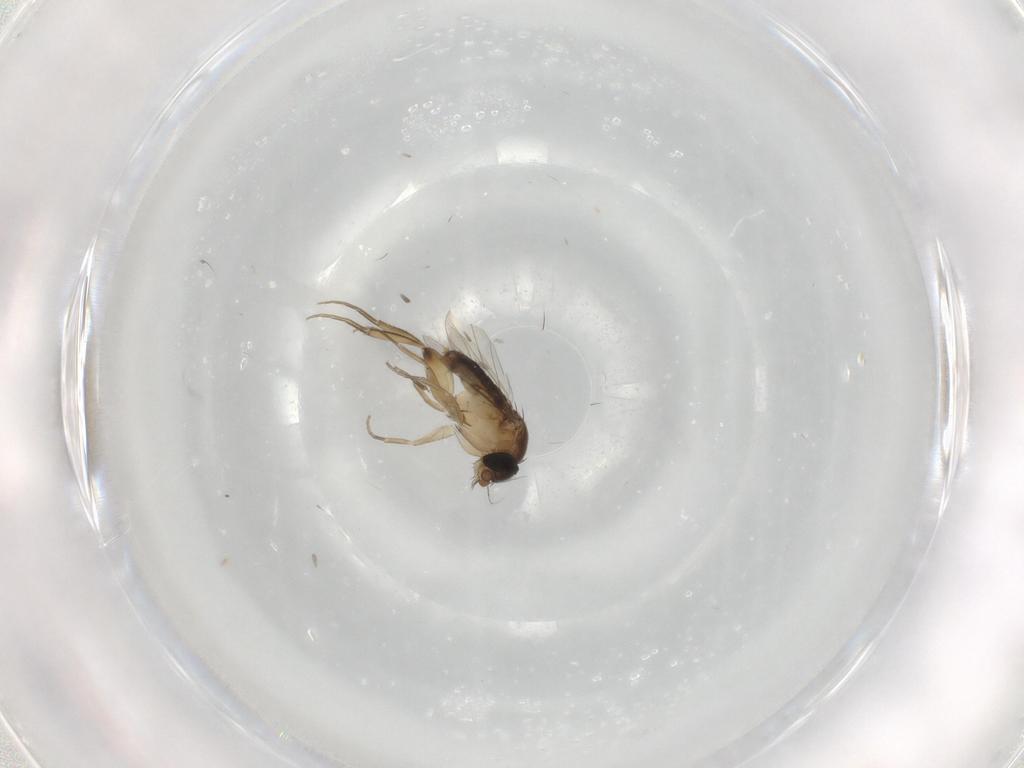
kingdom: Animalia
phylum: Arthropoda
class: Insecta
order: Diptera
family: Phoridae
